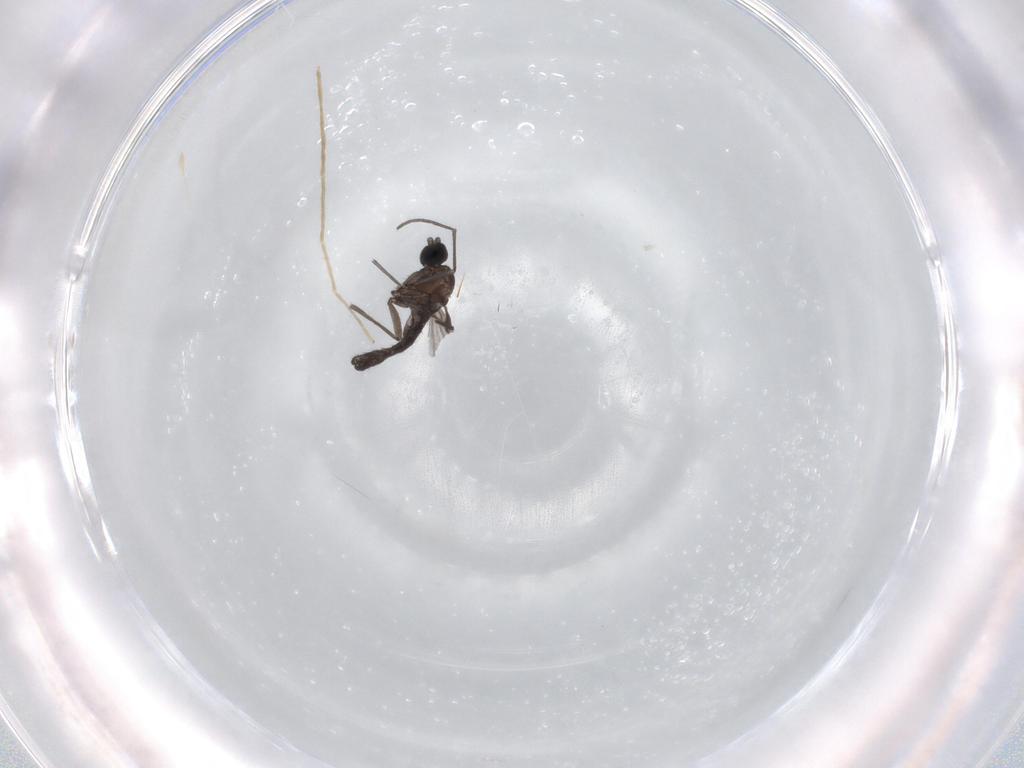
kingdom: Animalia
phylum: Arthropoda
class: Insecta
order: Diptera
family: Sciaridae
